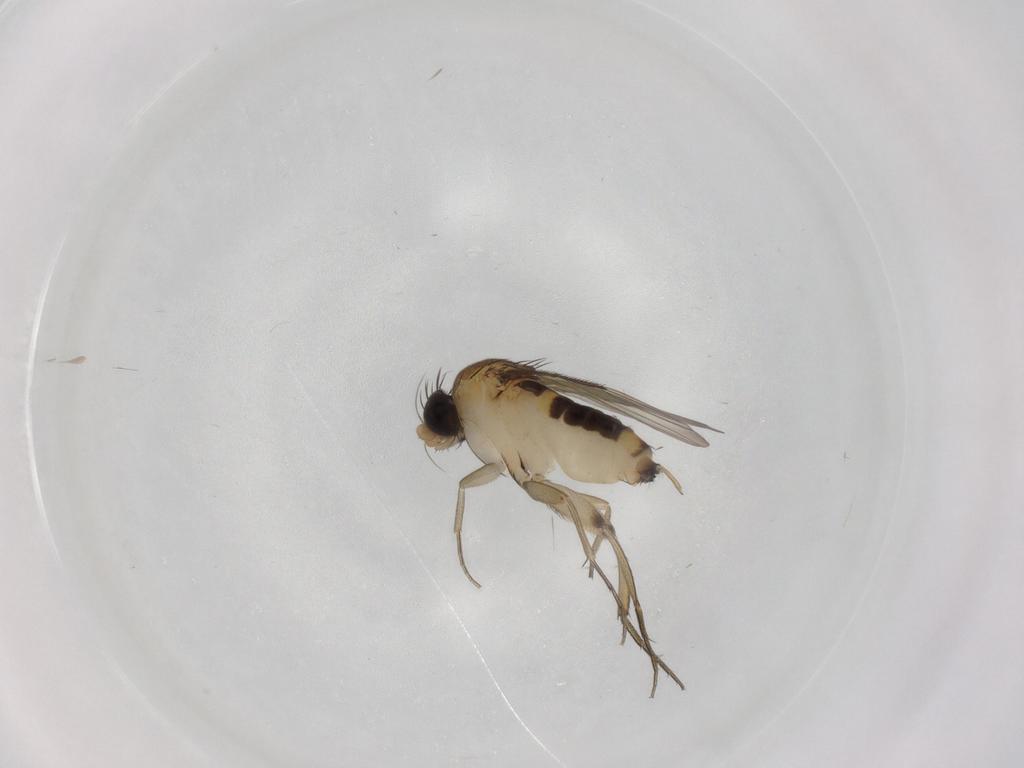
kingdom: Animalia
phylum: Arthropoda
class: Insecta
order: Diptera
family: Phoridae
